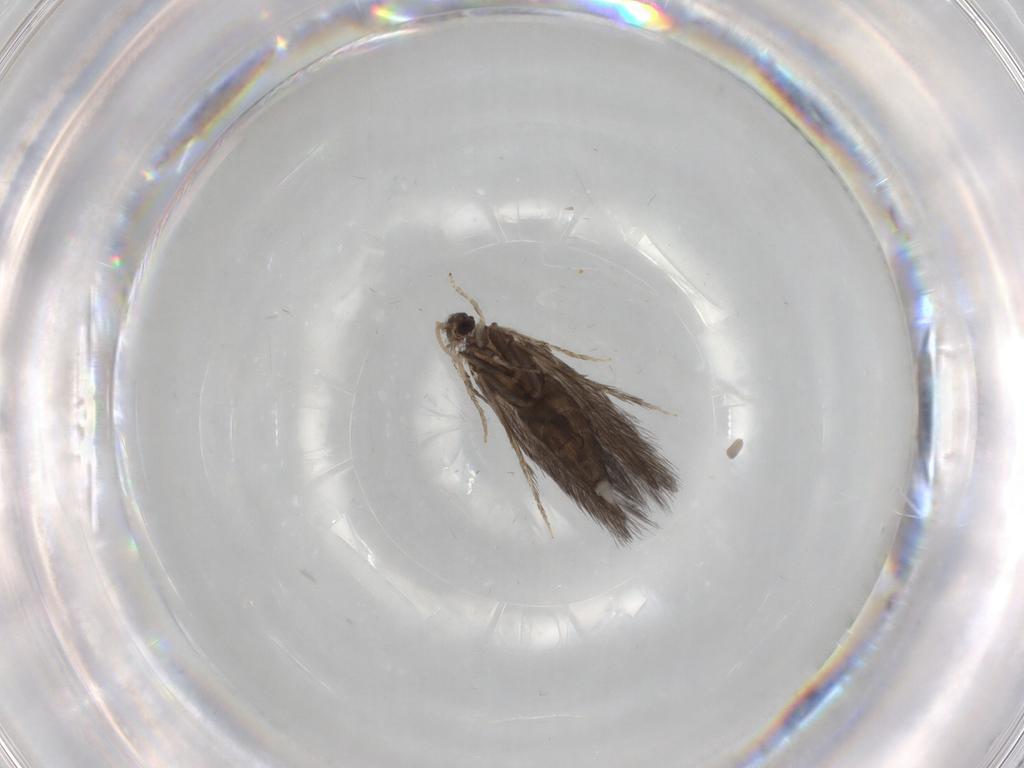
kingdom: Animalia
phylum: Arthropoda
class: Insecta
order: Trichoptera
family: Hydroptilidae
